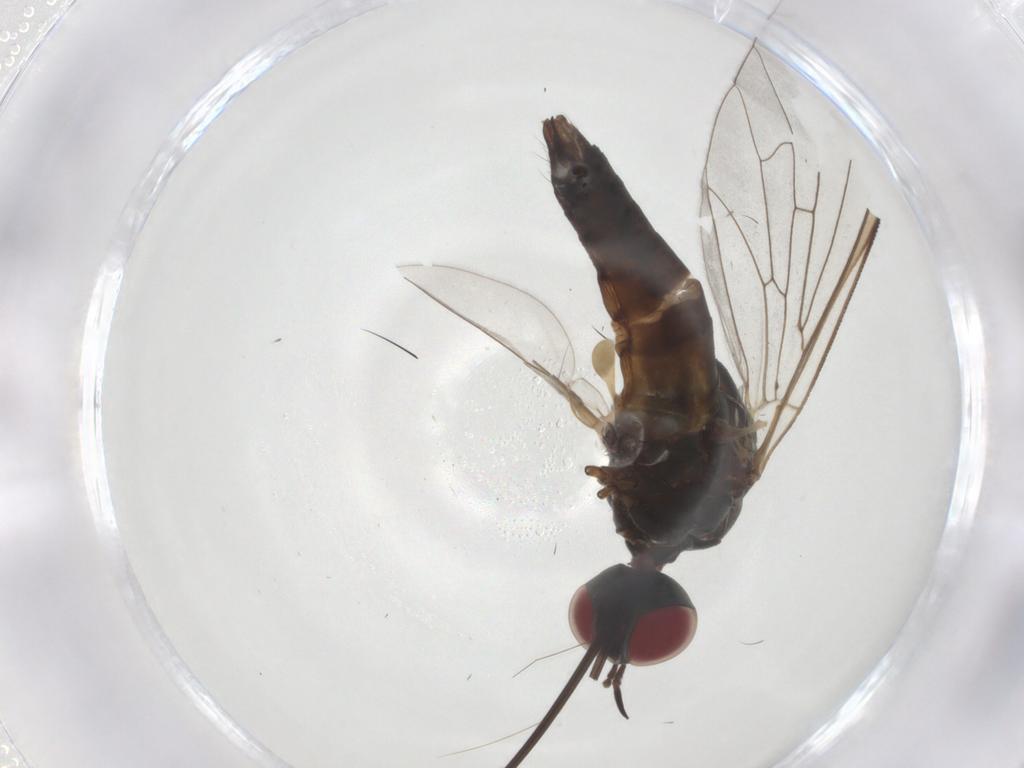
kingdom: Animalia
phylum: Arthropoda
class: Insecta
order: Diptera
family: Bombyliidae
